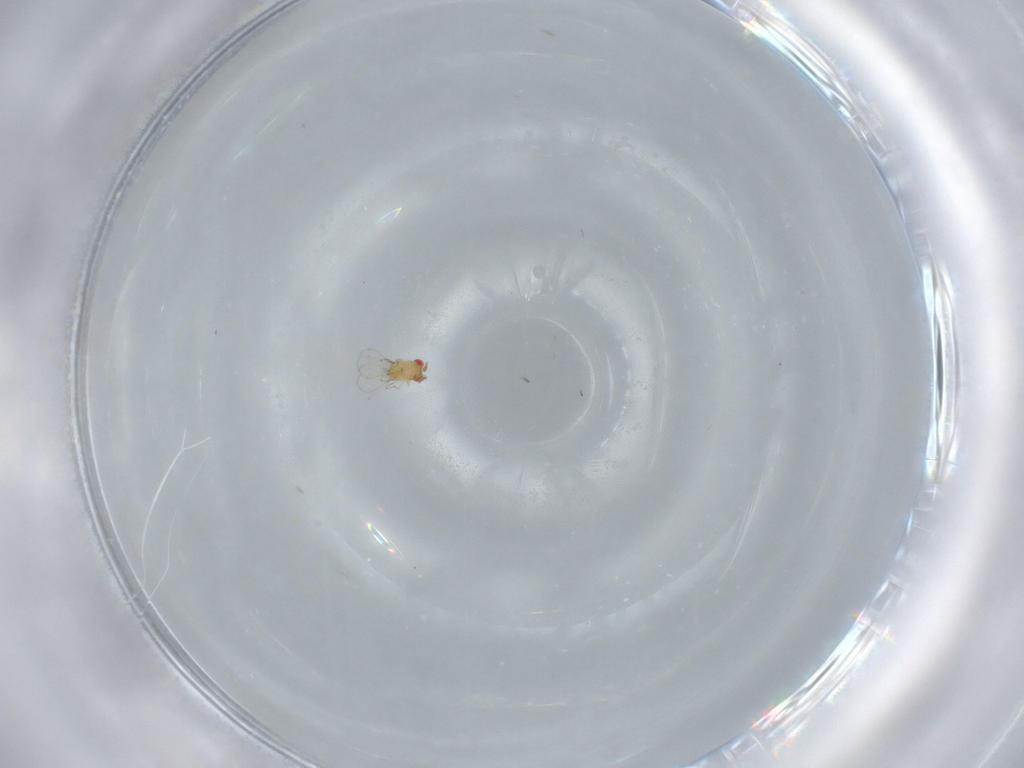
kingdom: Animalia
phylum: Arthropoda
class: Insecta
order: Hymenoptera
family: Trichogrammatidae
